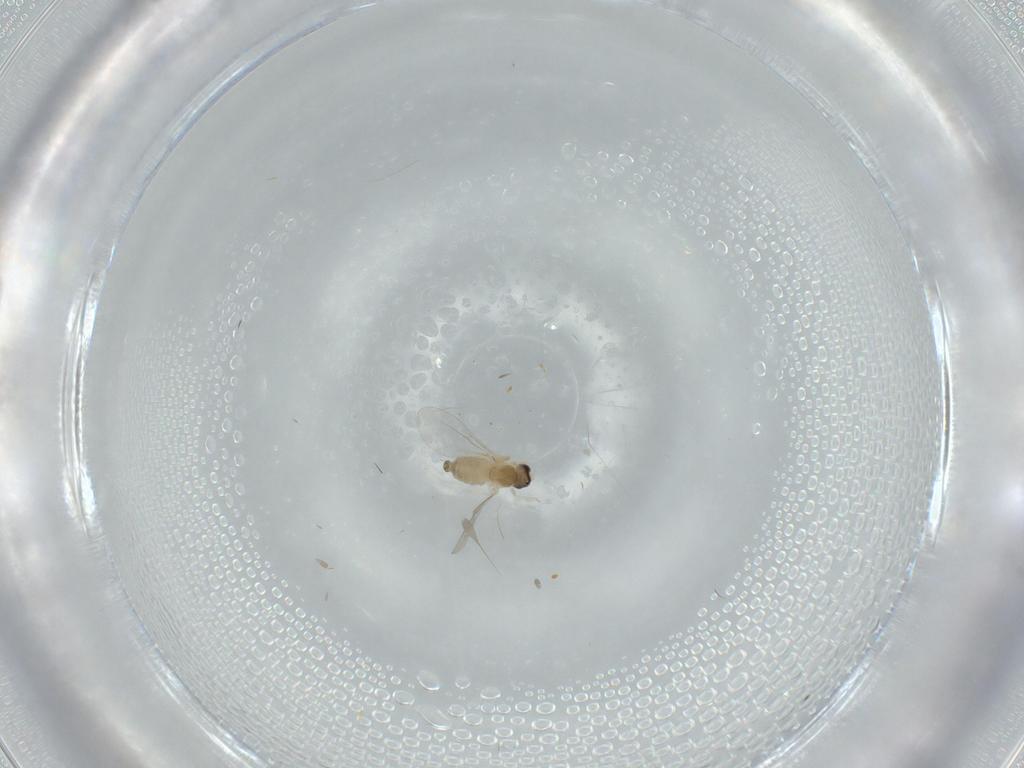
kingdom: Animalia
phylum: Arthropoda
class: Insecta
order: Diptera
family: Cecidomyiidae
